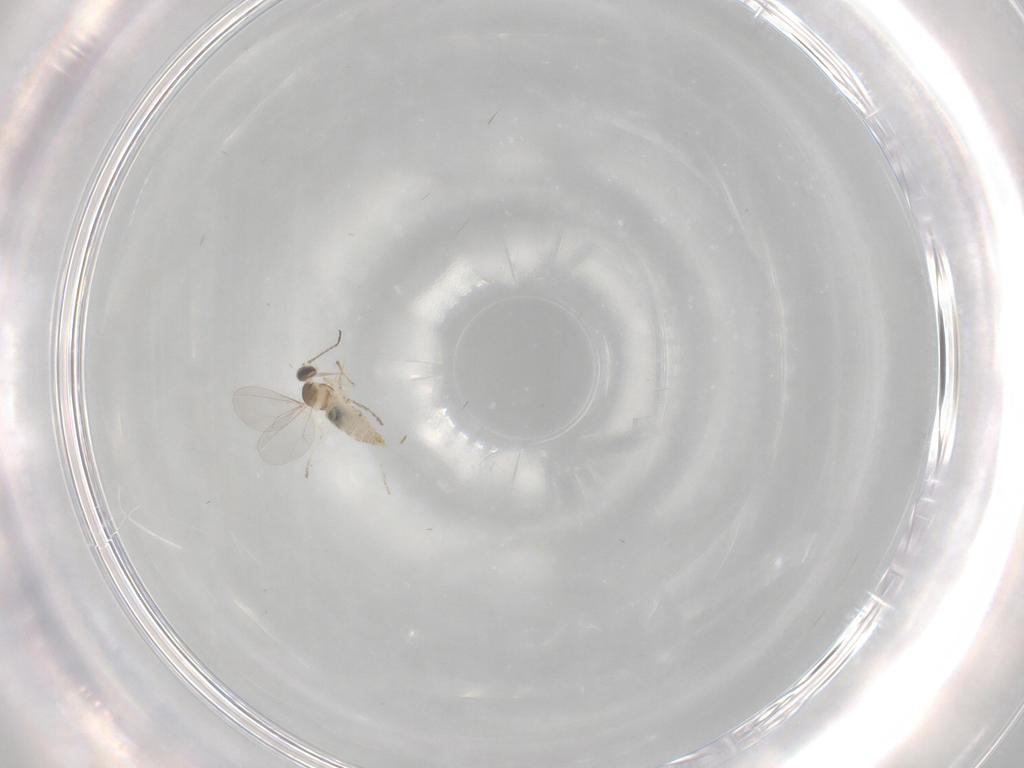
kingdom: Animalia
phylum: Arthropoda
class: Insecta
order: Diptera
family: Cecidomyiidae
